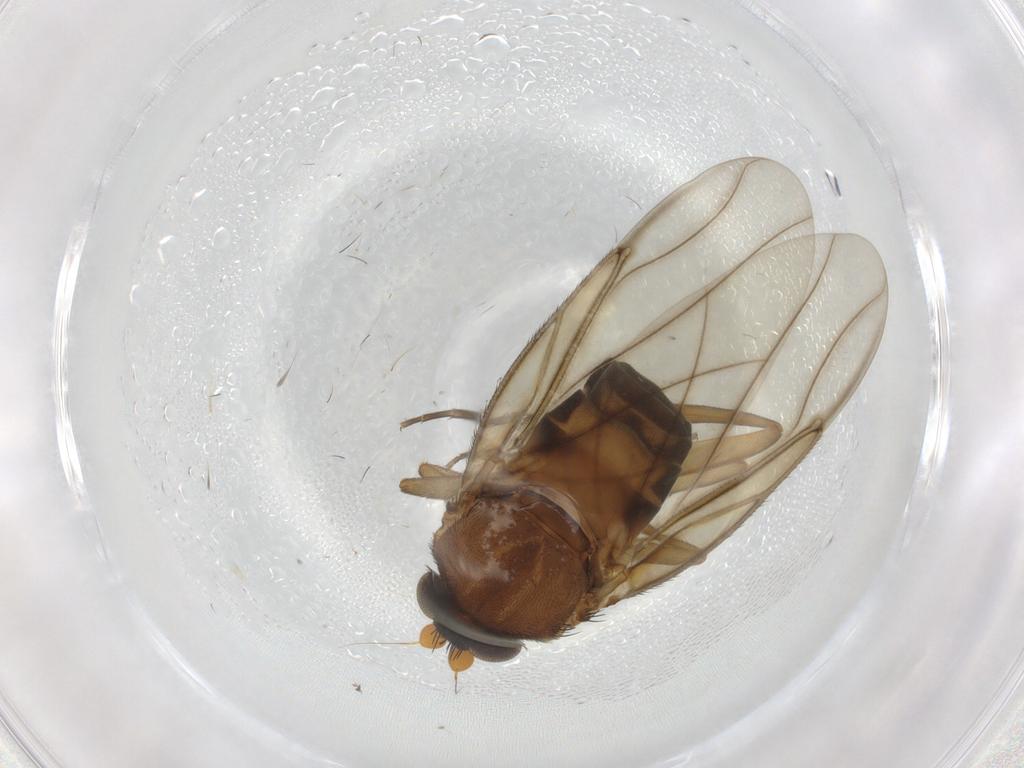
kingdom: Animalia
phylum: Arthropoda
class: Insecta
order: Diptera
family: Phoridae
